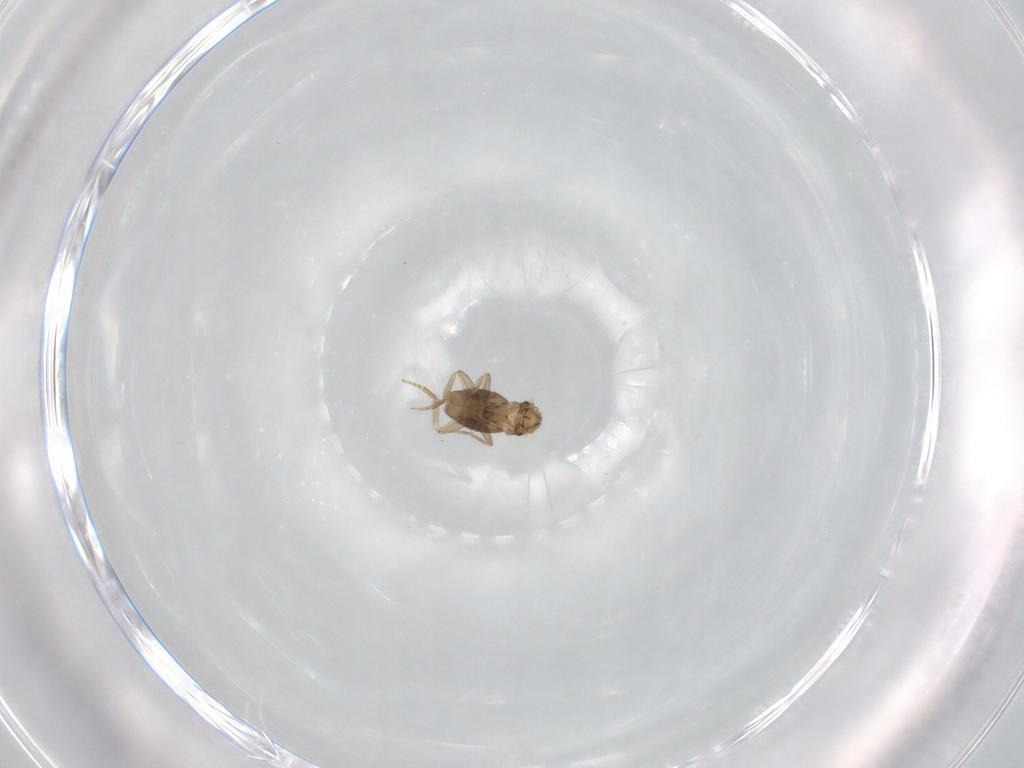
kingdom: Animalia
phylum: Arthropoda
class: Insecta
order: Diptera
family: Phoridae
